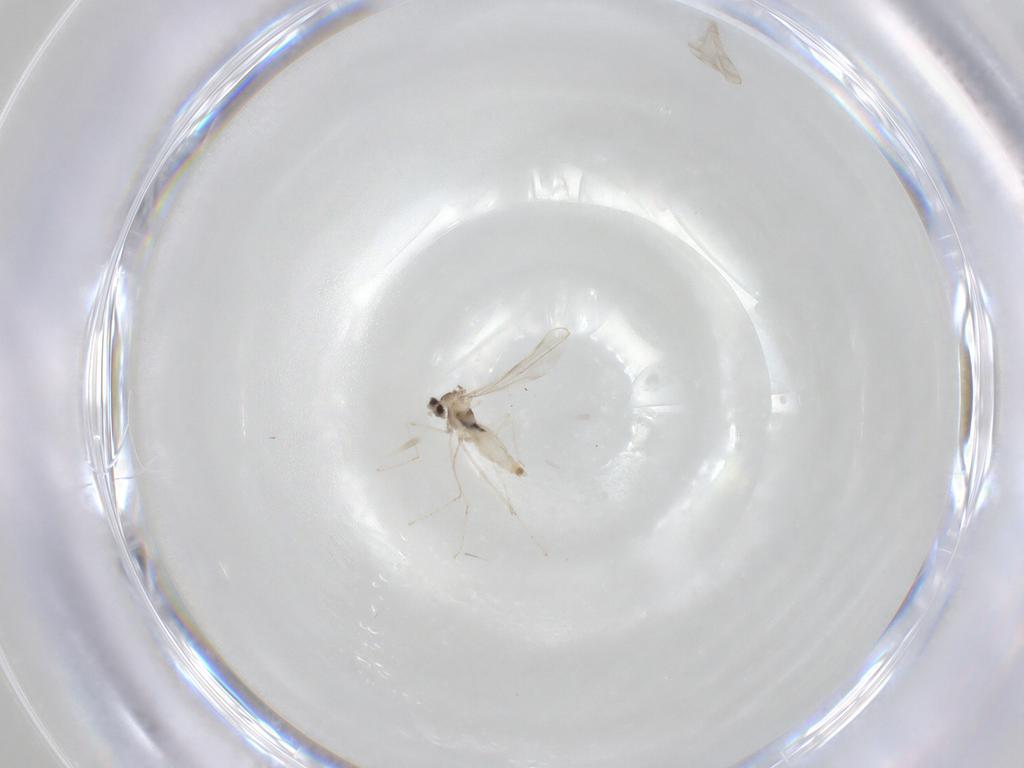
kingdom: Animalia
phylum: Arthropoda
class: Insecta
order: Diptera
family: Cecidomyiidae
